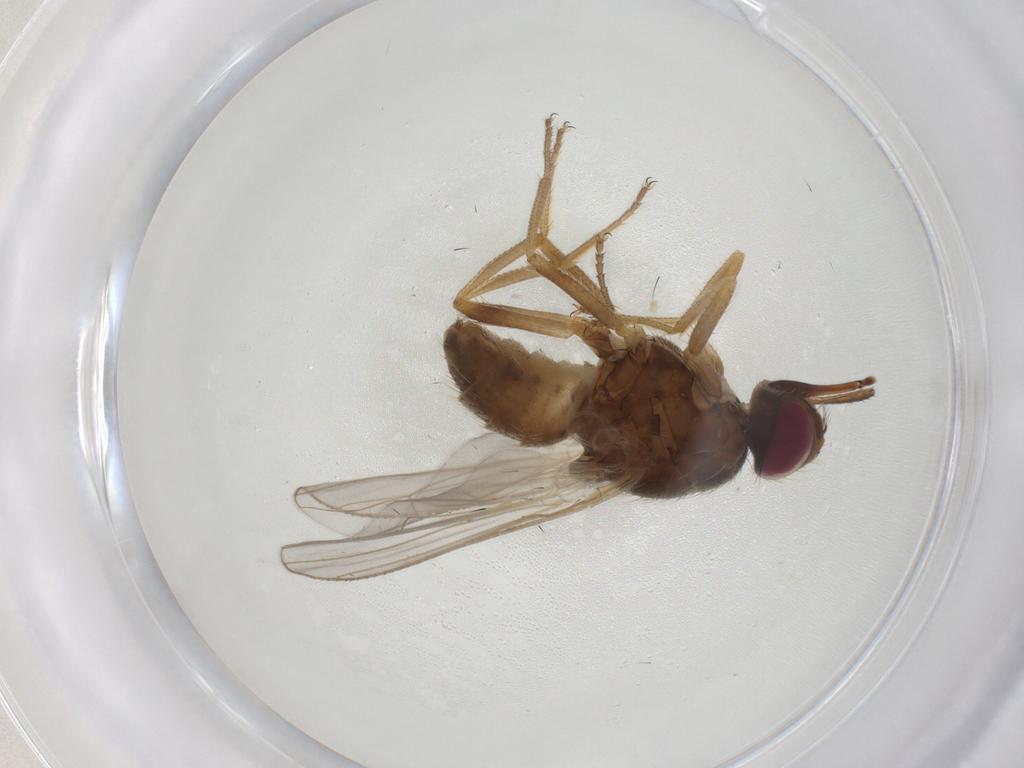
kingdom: Animalia
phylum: Arthropoda
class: Insecta
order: Diptera
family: Muscidae
